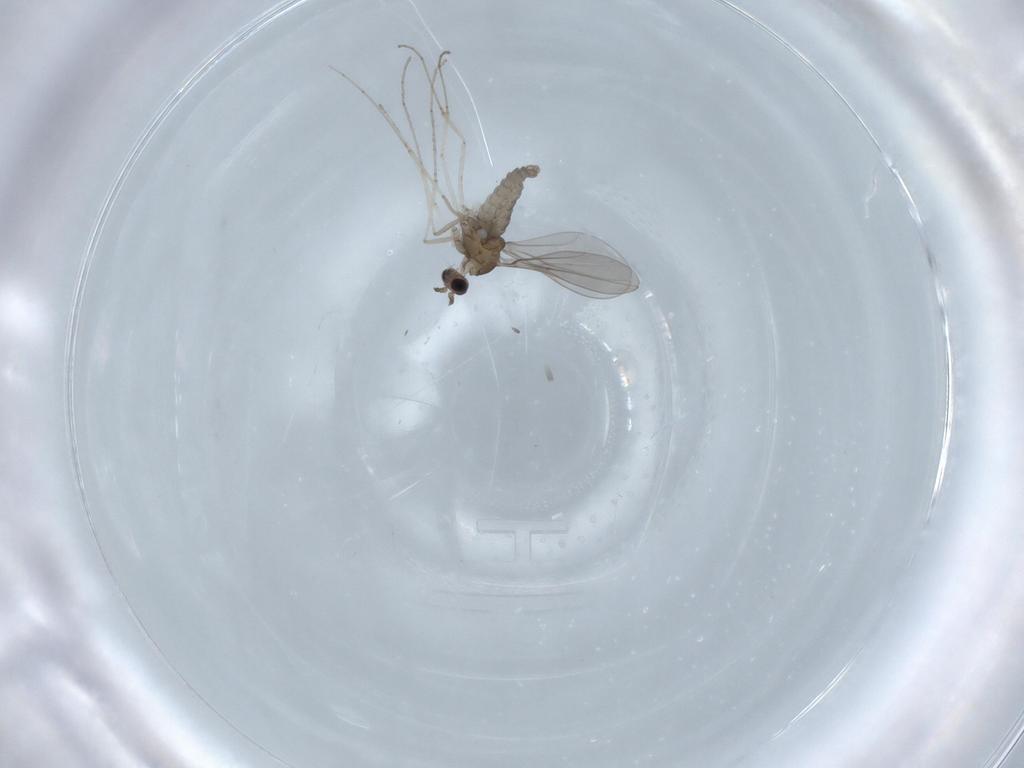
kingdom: Animalia
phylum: Arthropoda
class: Insecta
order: Diptera
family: Cecidomyiidae
